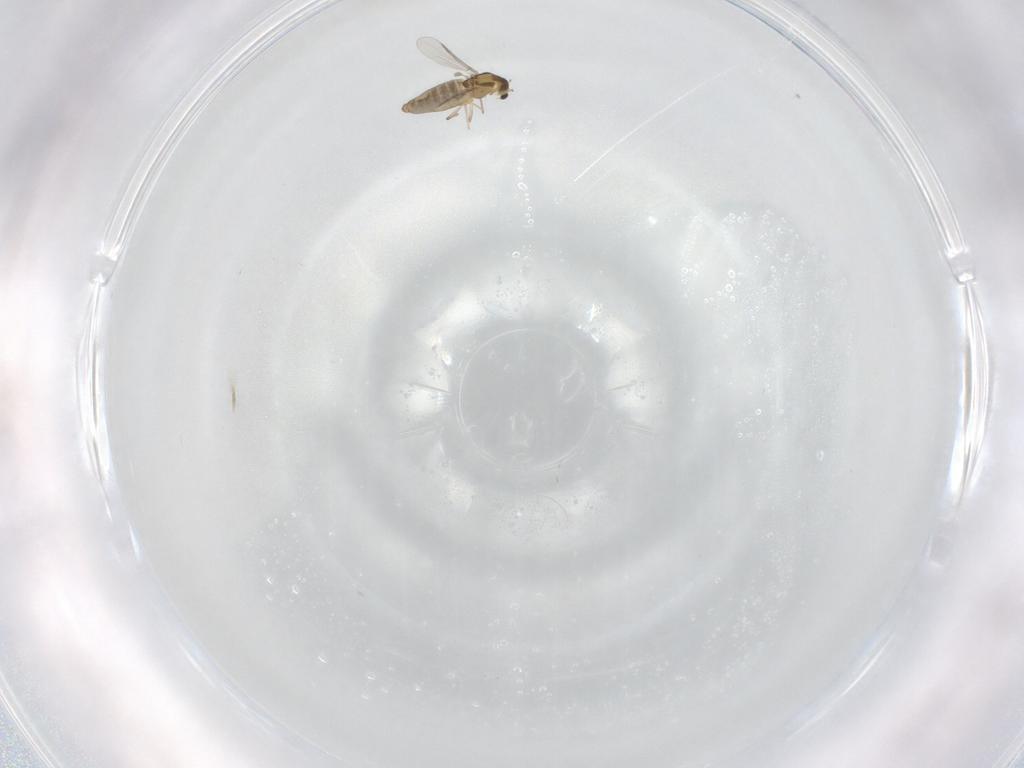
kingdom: Animalia
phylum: Arthropoda
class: Insecta
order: Diptera
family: Chironomidae
